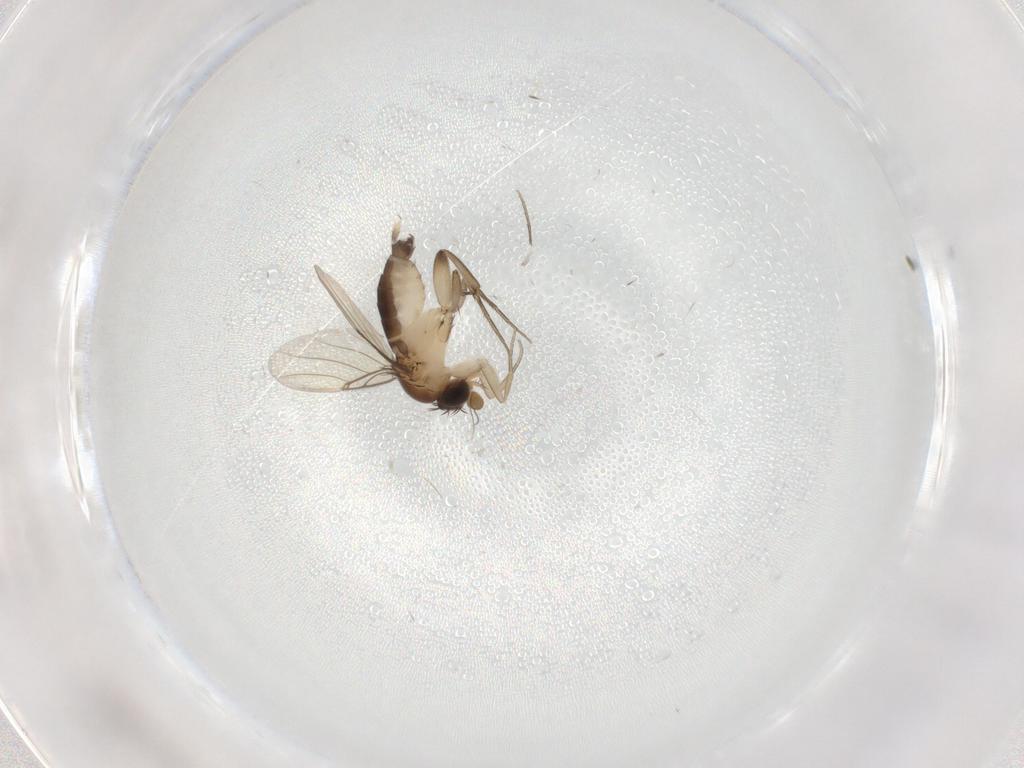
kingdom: Animalia
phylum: Arthropoda
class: Insecta
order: Diptera
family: Phoridae
